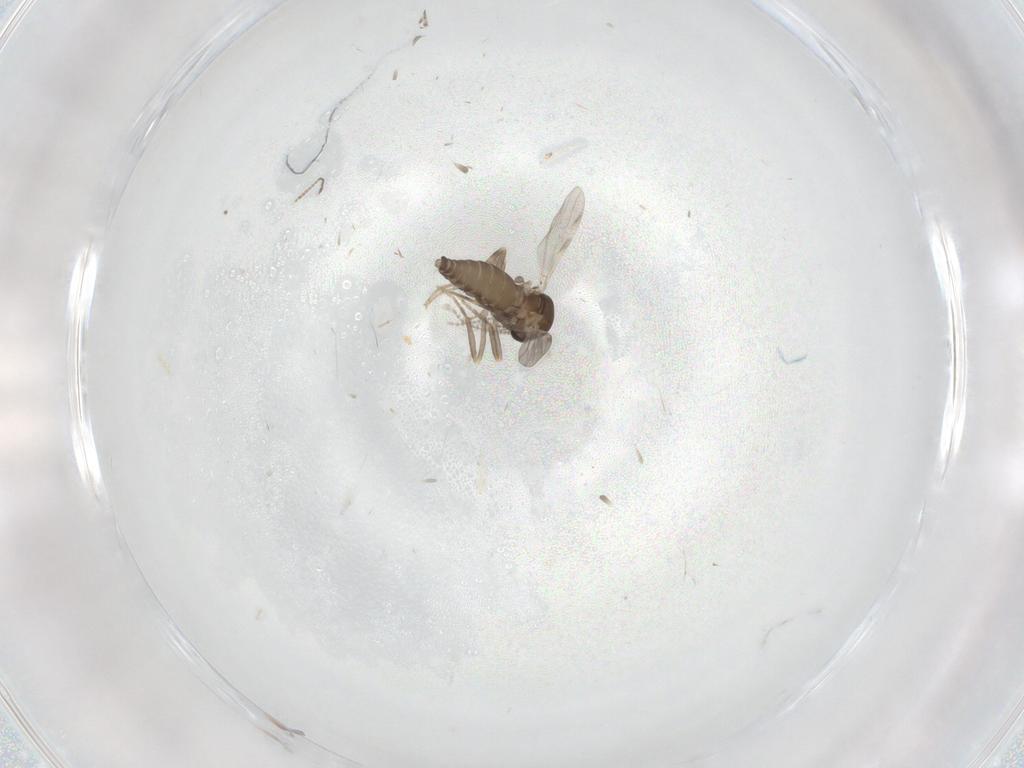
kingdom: Animalia
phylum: Arthropoda
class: Insecta
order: Diptera
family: Ceratopogonidae
